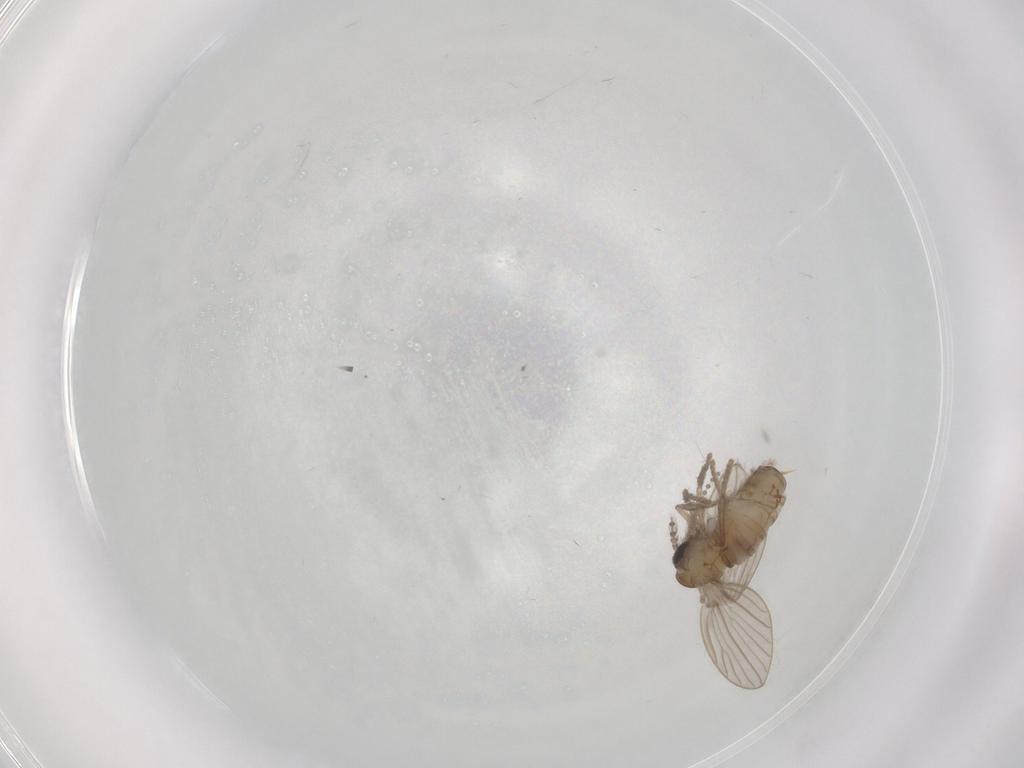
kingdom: Animalia
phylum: Arthropoda
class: Insecta
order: Diptera
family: Psychodidae
